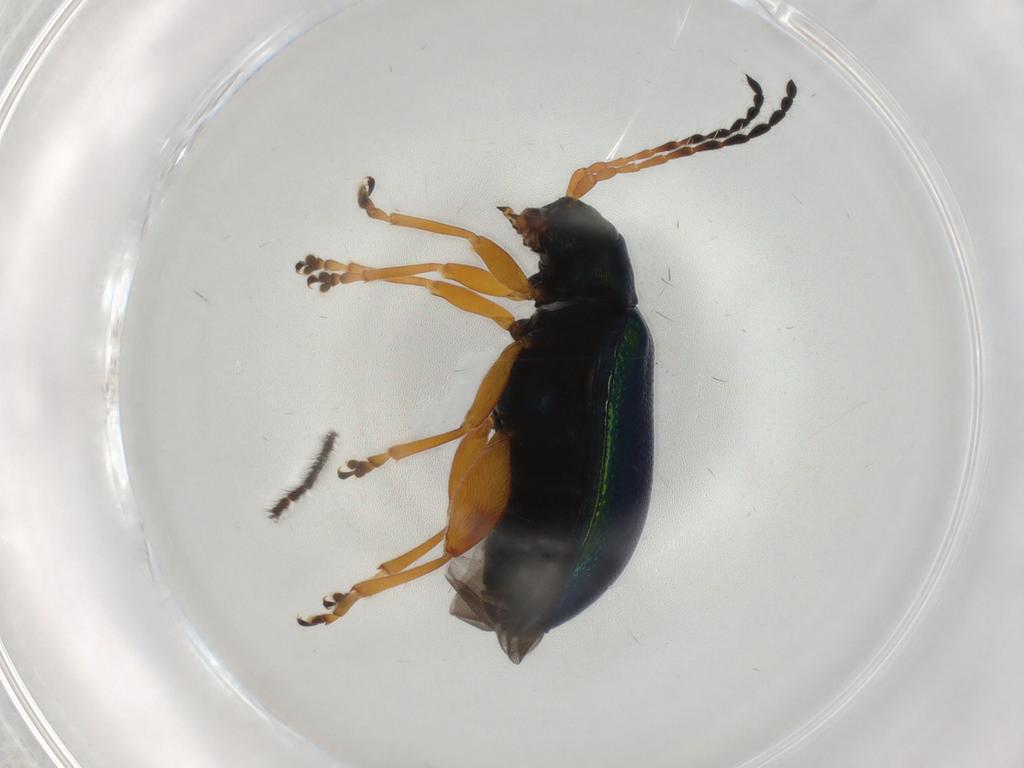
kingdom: Animalia
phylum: Arthropoda
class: Insecta
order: Coleoptera
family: Chrysomelidae
